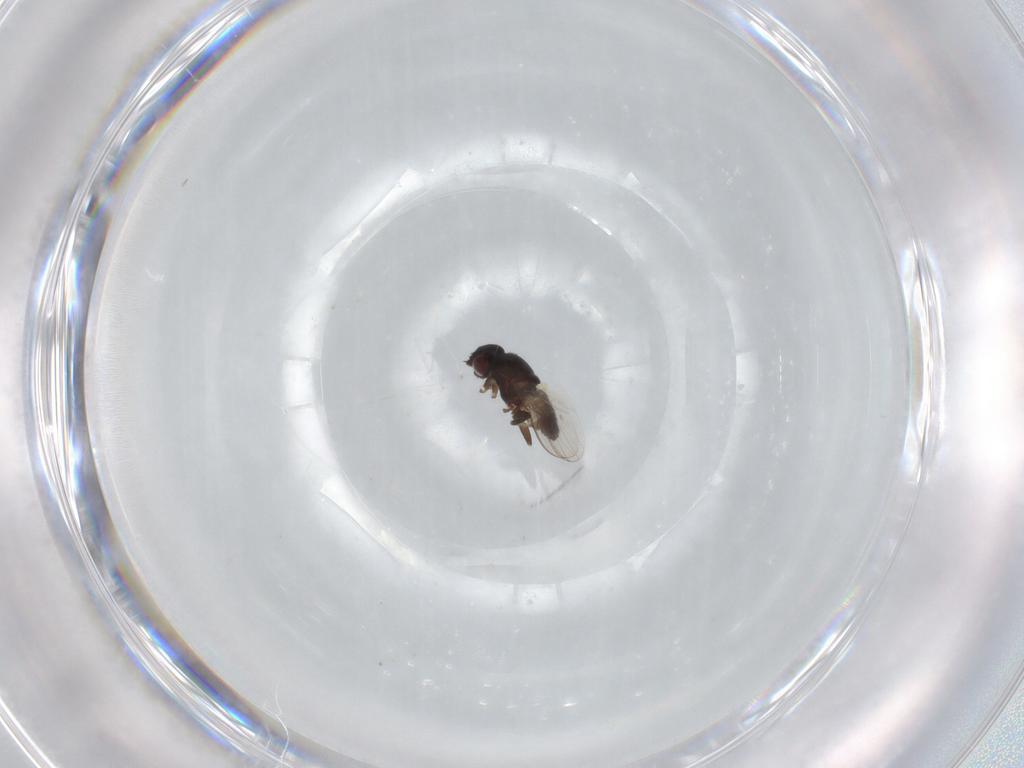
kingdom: Animalia
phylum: Arthropoda
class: Insecta
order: Diptera
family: Milichiidae
